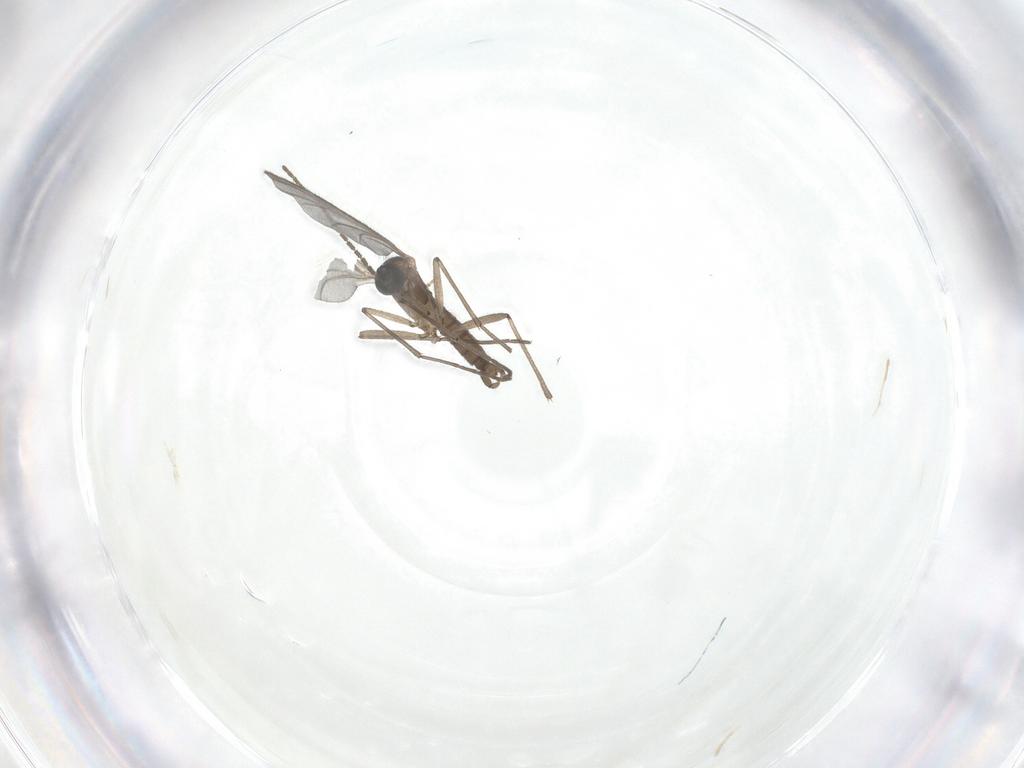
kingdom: Animalia
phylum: Arthropoda
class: Insecta
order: Diptera
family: Sciaridae
